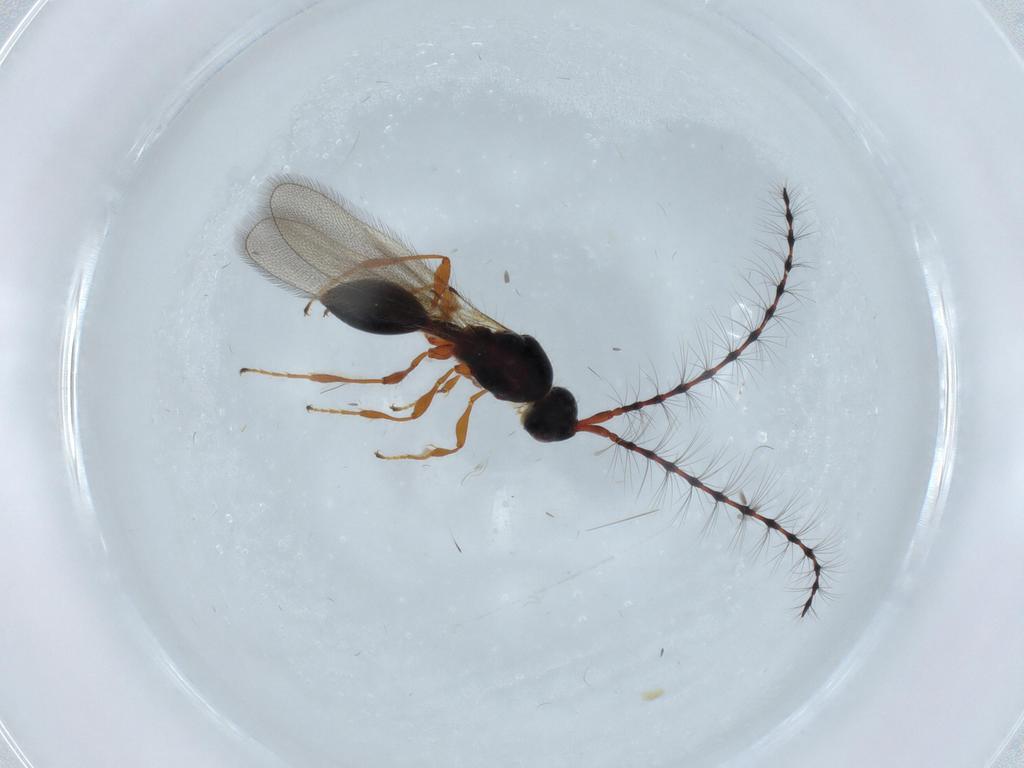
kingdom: Animalia
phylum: Arthropoda
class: Insecta
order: Hymenoptera
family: Diapriidae
